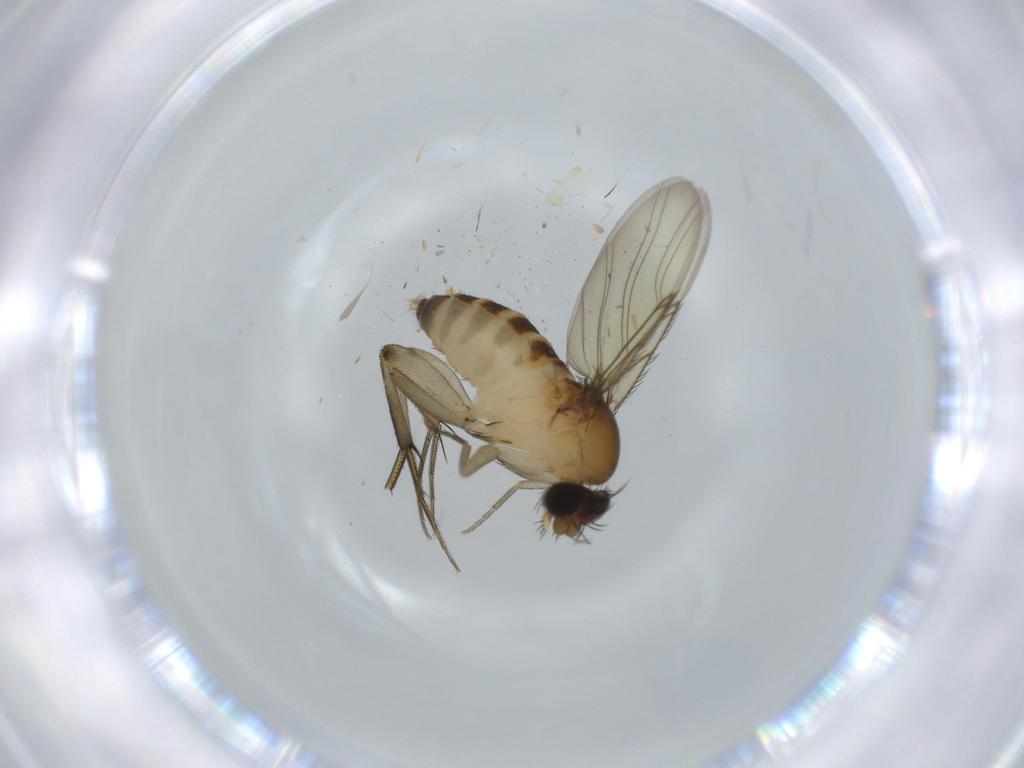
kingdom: Animalia
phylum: Arthropoda
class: Insecta
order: Diptera
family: Phoridae
